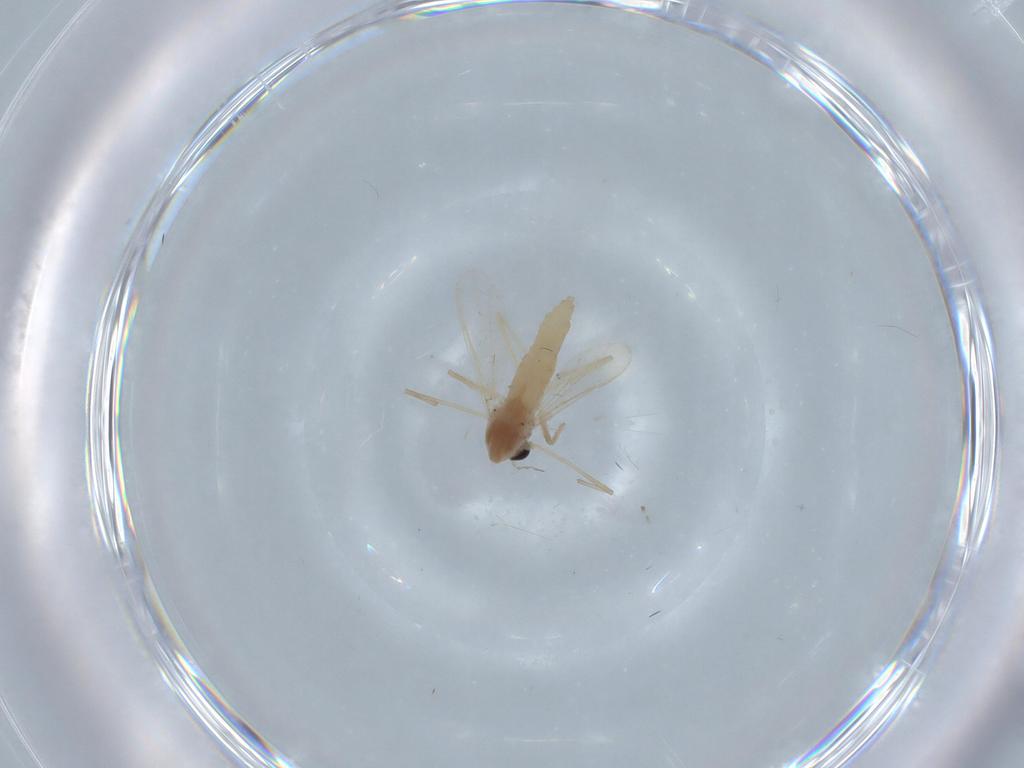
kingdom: Animalia
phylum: Arthropoda
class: Insecta
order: Diptera
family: Chironomidae
